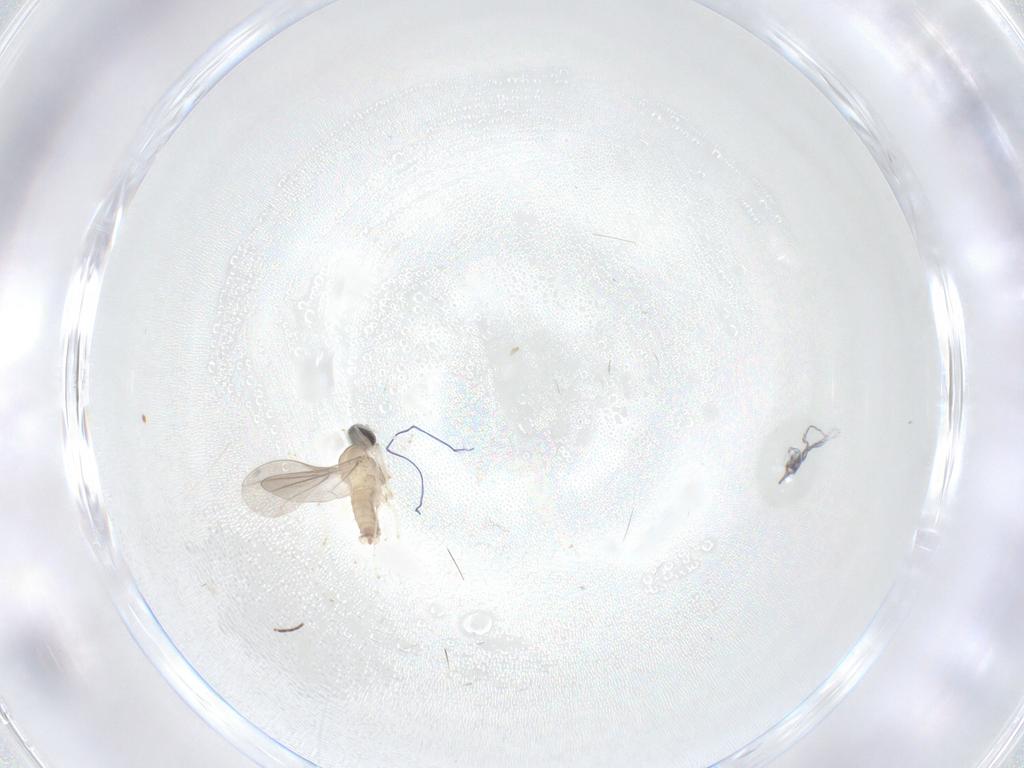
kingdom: Animalia
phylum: Arthropoda
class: Insecta
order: Diptera
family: Cecidomyiidae
